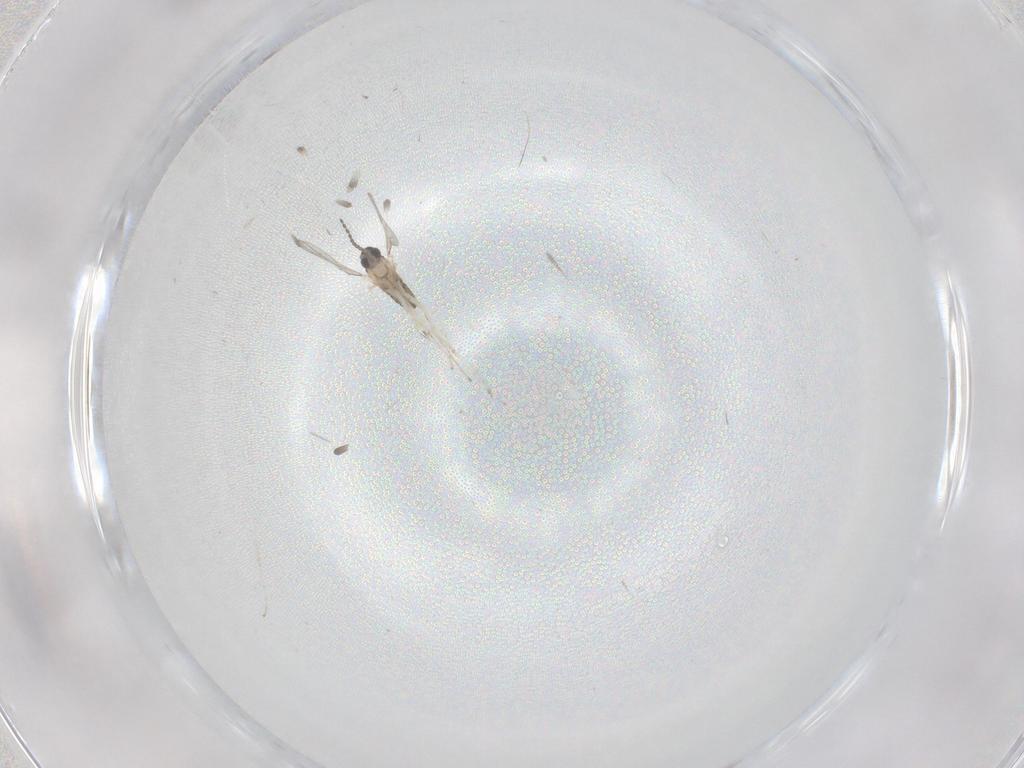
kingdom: Animalia
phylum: Arthropoda
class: Insecta
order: Diptera
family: Cecidomyiidae
